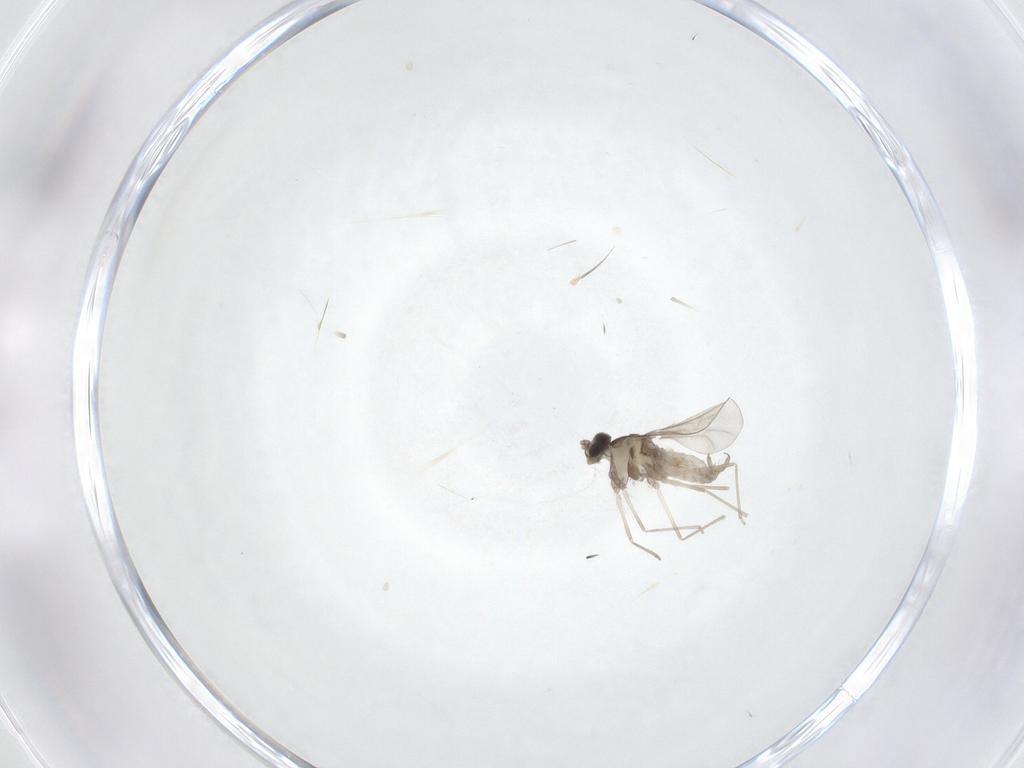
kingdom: Animalia
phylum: Arthropoda
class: Insecta
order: Diptera
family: Cecidomyiidae
